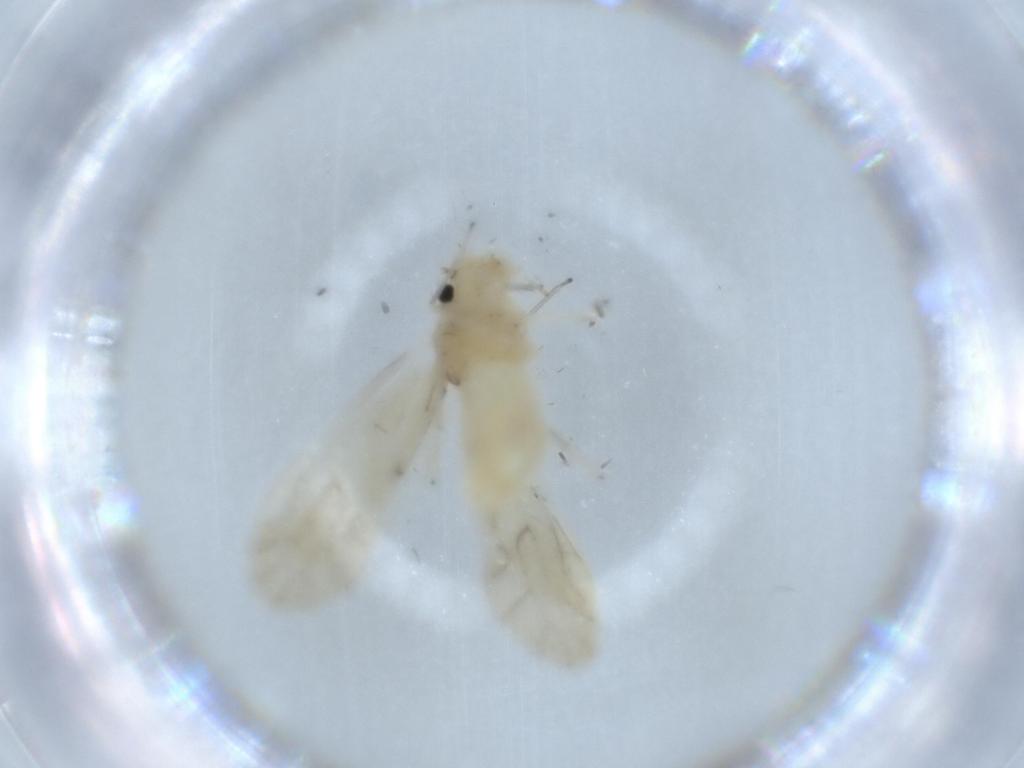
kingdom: Animalia
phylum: Arthropoda
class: Insecta
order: Psocodea
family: Caeciliusidae
